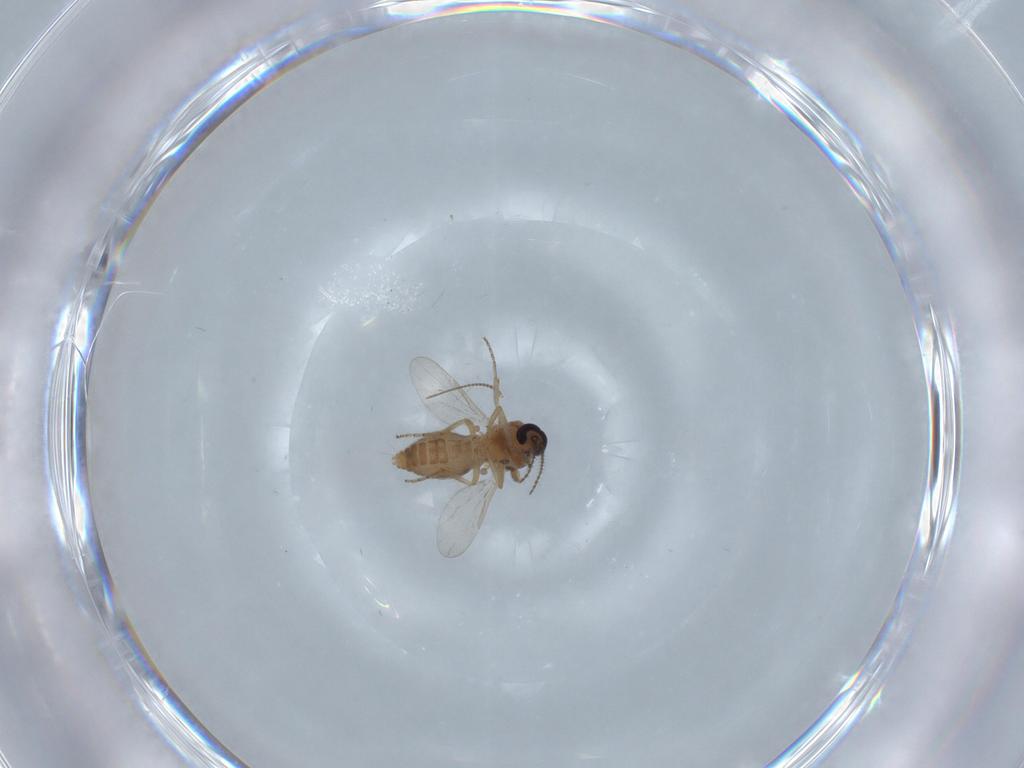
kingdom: Animalia
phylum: Arthropoda
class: Insecta
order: Diptera
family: Ceratopogonidae
